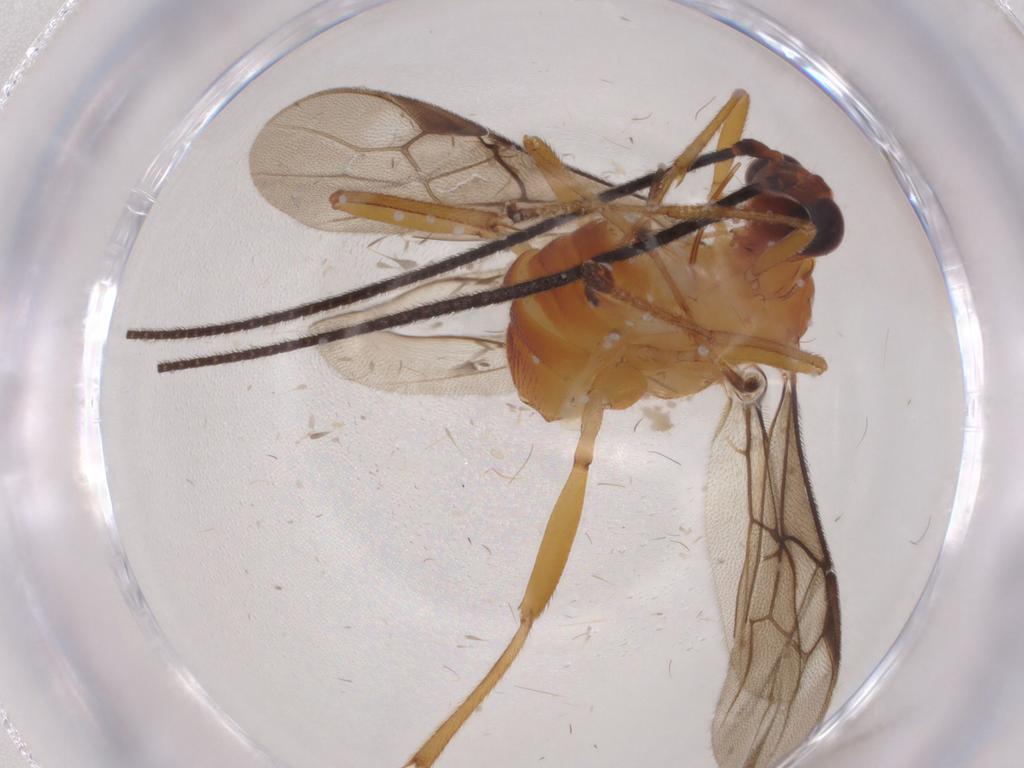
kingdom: Animalia
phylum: Arthropoda
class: Insecta
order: Hymenoptera
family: Braconidae
